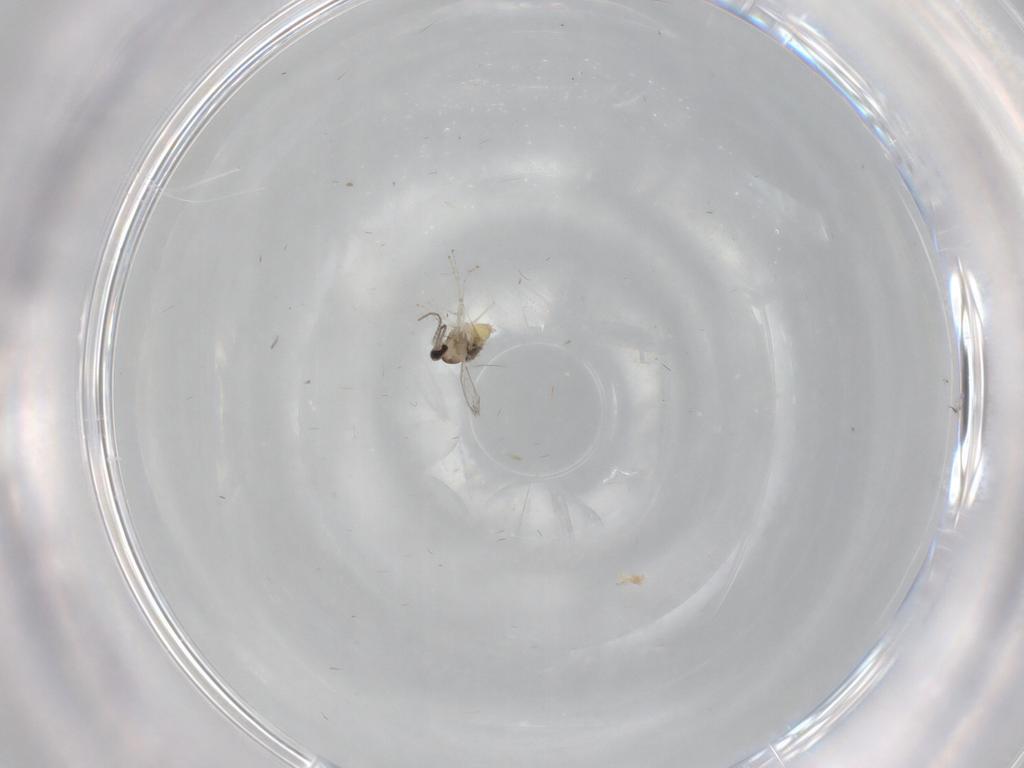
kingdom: Animalia
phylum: Arthropoda
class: Insecta
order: Diptera
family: Cecidomyiidae
